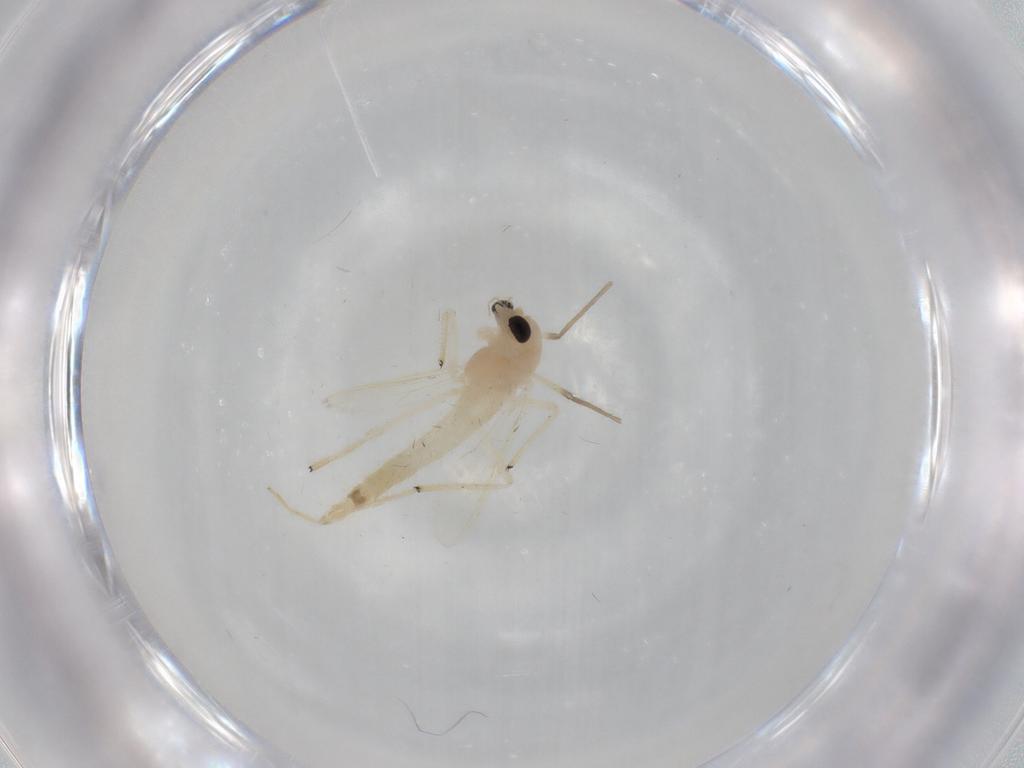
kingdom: Animalia
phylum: Arthropoda
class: Insecta
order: Diptera
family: Chironomidae
